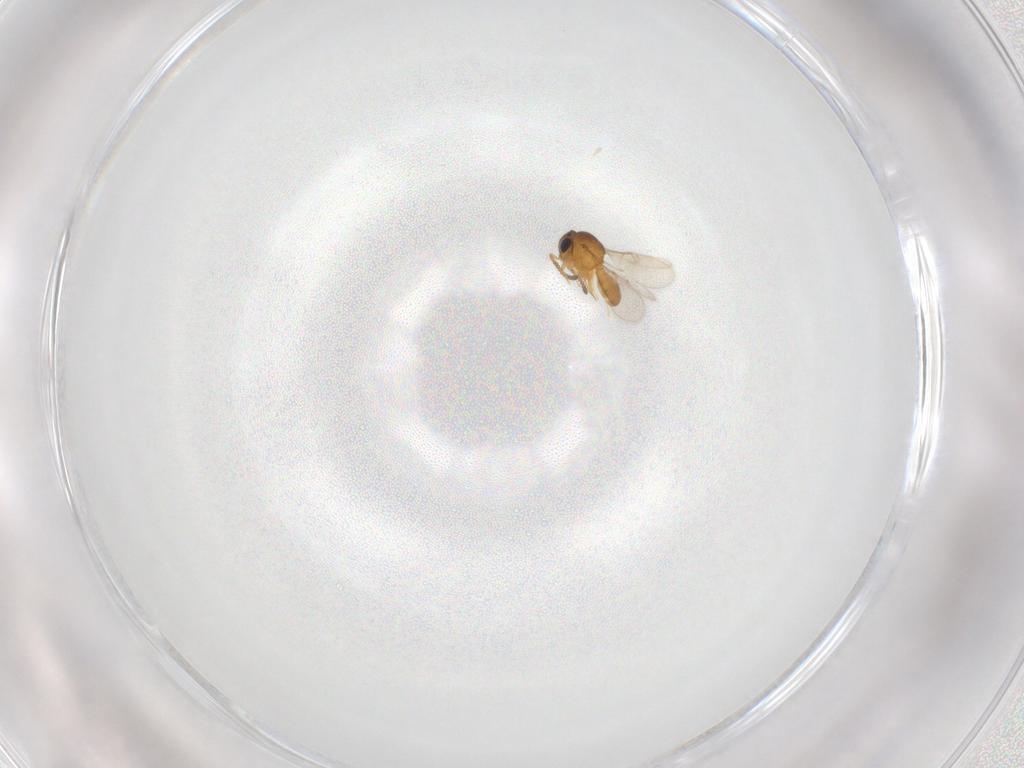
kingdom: Animalia
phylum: Arthropoda
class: Insecta
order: Hymenoptera
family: Scelionidae
